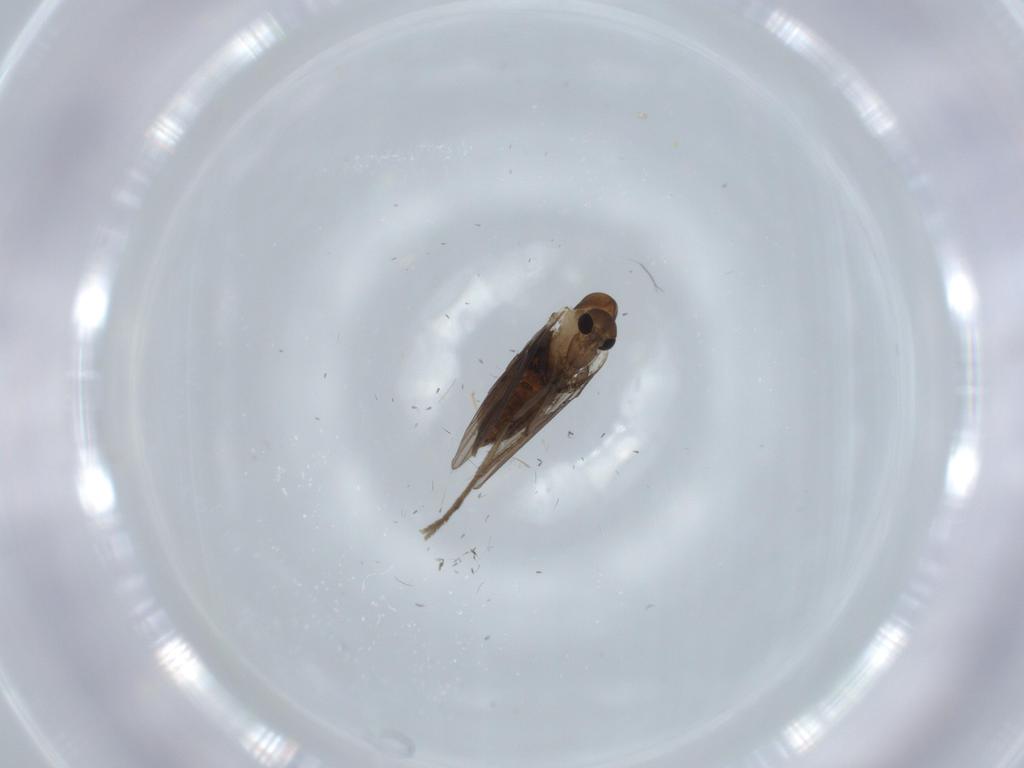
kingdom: Animalia
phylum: Arthropoda
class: Insecta
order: Diptera
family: Psychodidae
